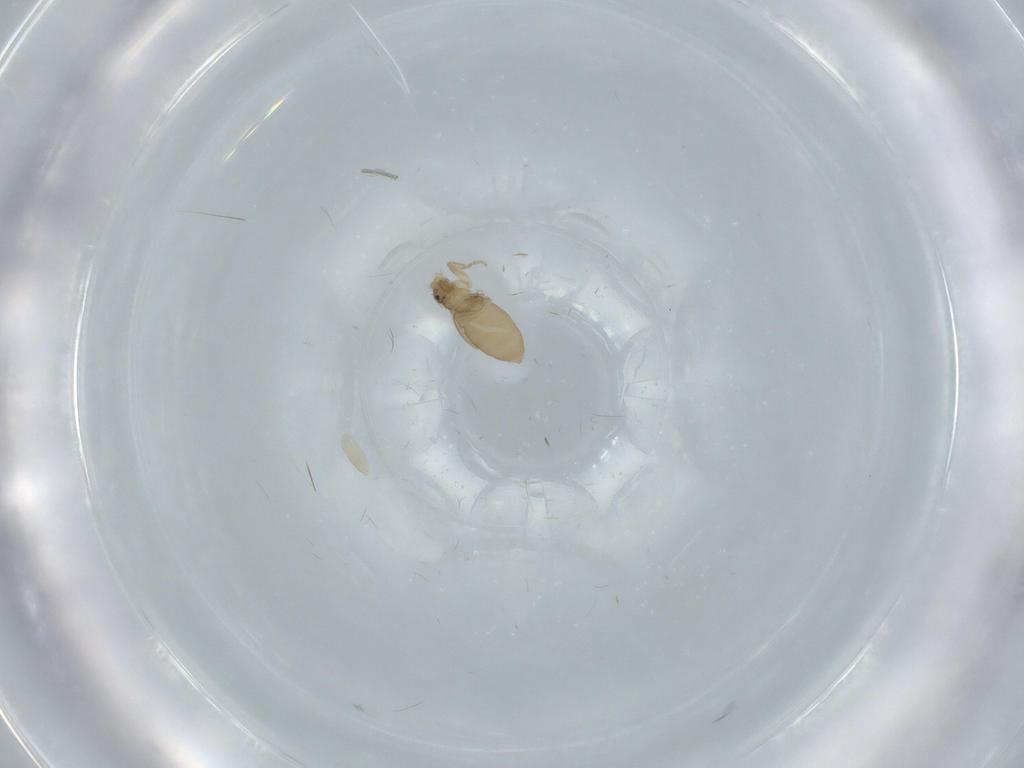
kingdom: Animalia
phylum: Arthropoda
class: Insecta
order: Diptera
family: Phoridae
